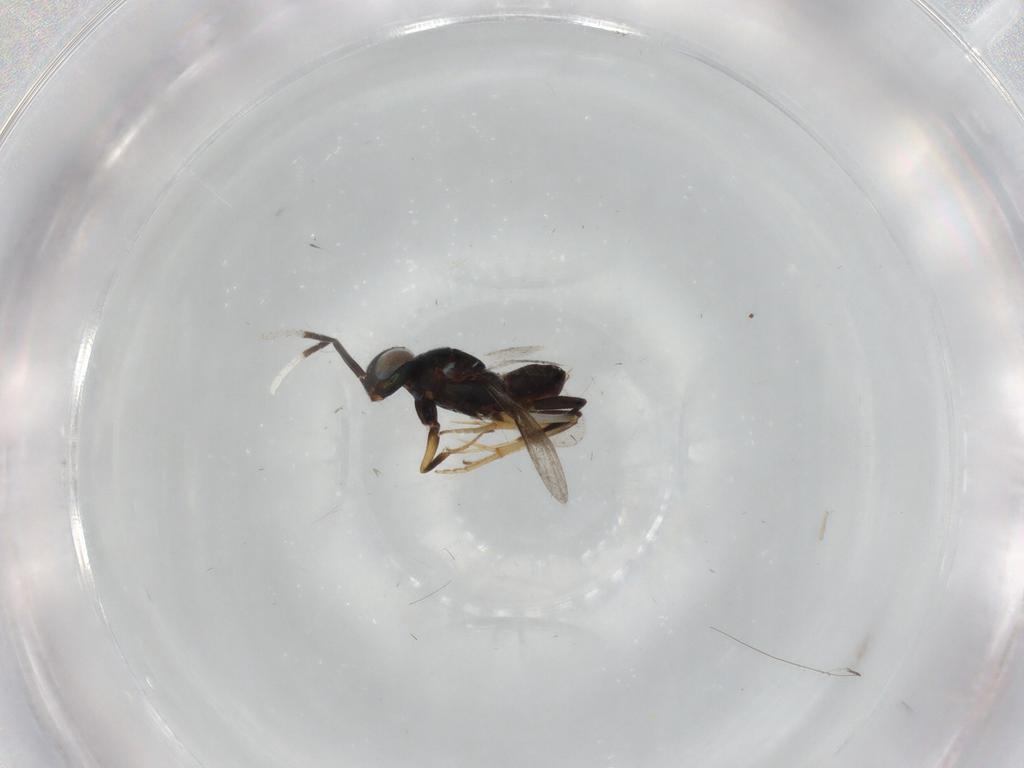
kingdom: Animalia
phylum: Arthropoda
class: Insecta
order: Hymenoptera
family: Encyrtidae
